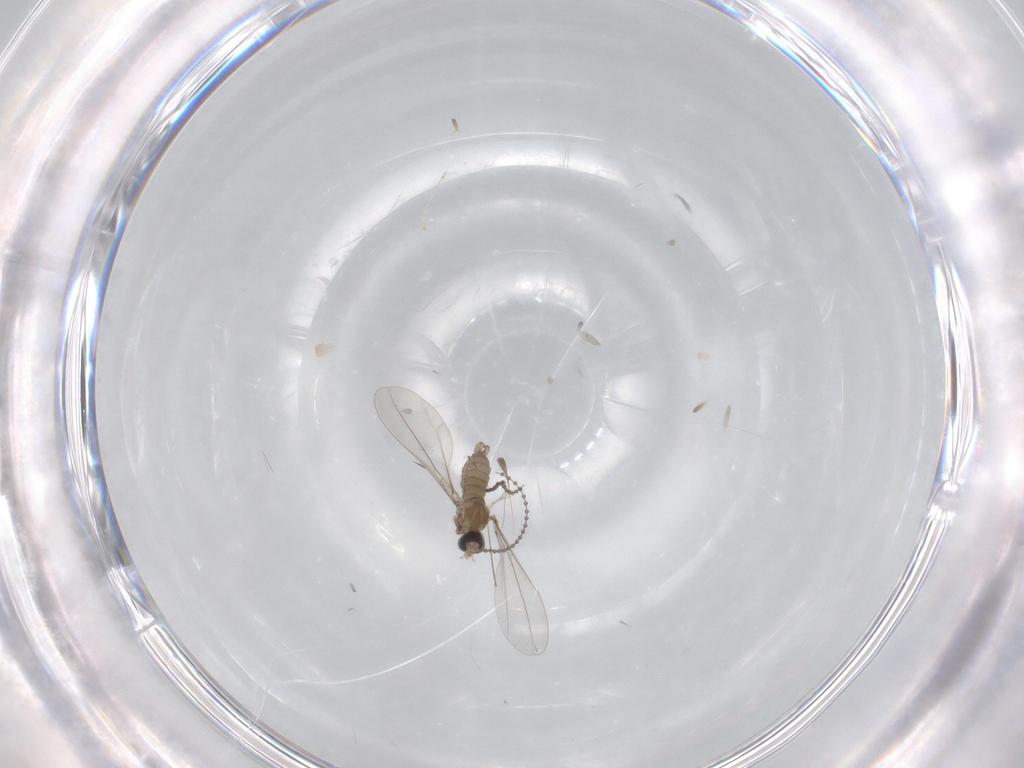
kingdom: Animalia
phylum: Arthropoda
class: Insecta
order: Diptera
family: Cecidomyiidae
